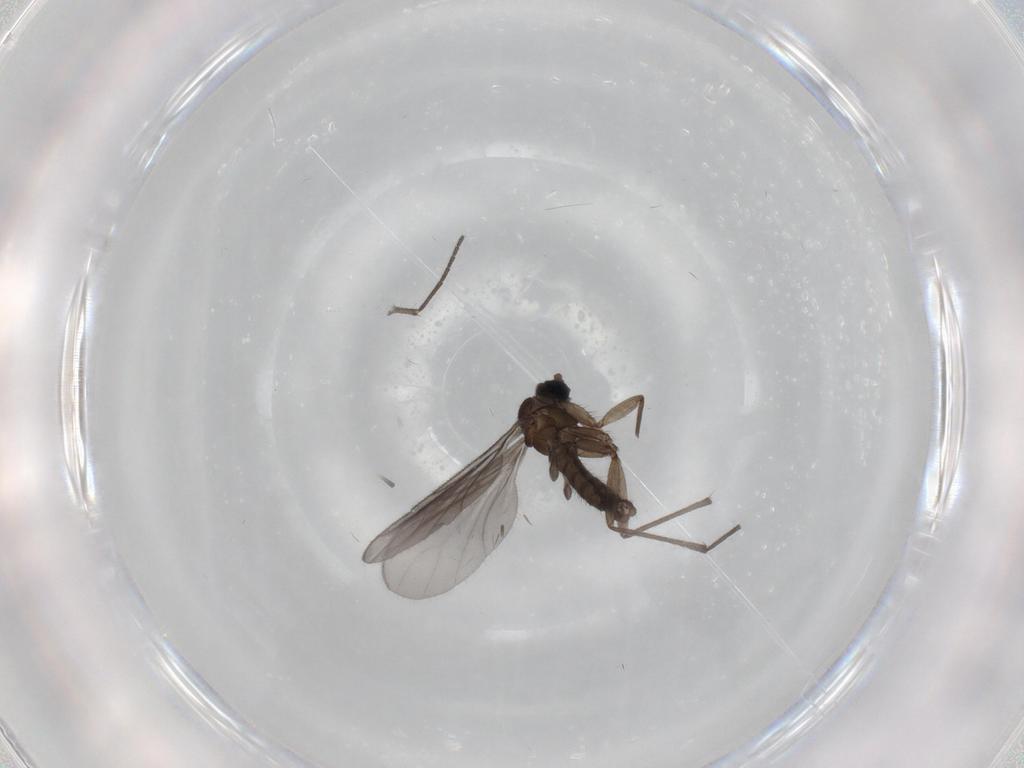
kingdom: Animalia
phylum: Arthropoda
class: Insecta
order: Diptera
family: Sciaridae
